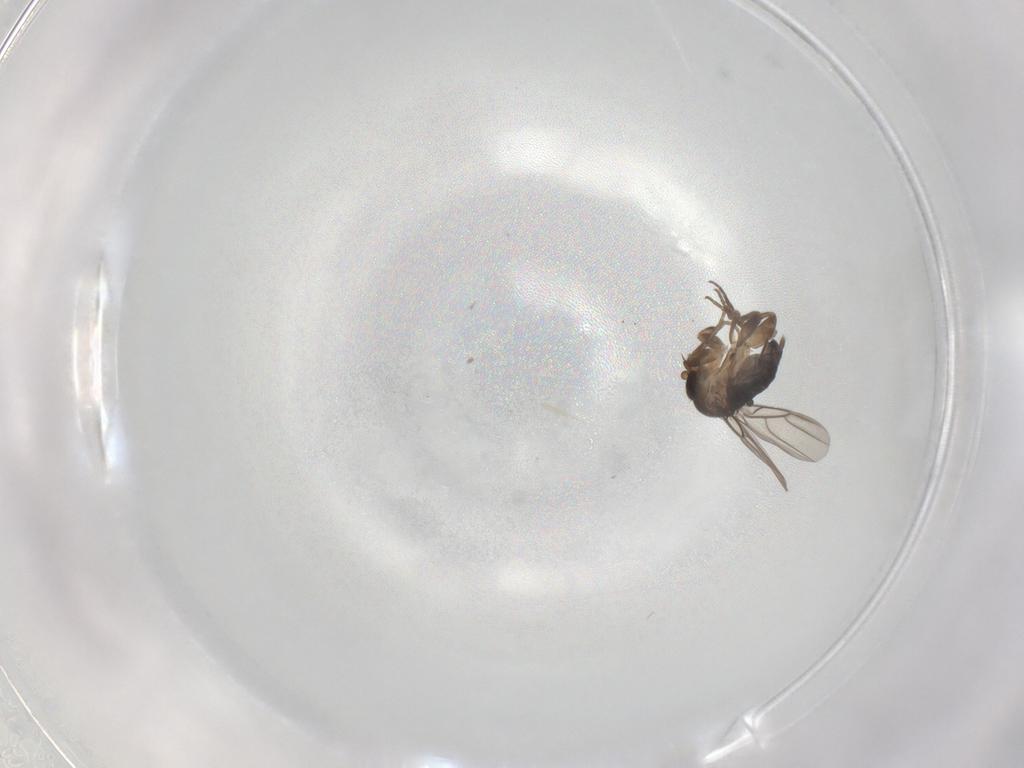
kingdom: Animalia
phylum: Arthropoda
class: Insecta
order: Diptera
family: Phoridae
